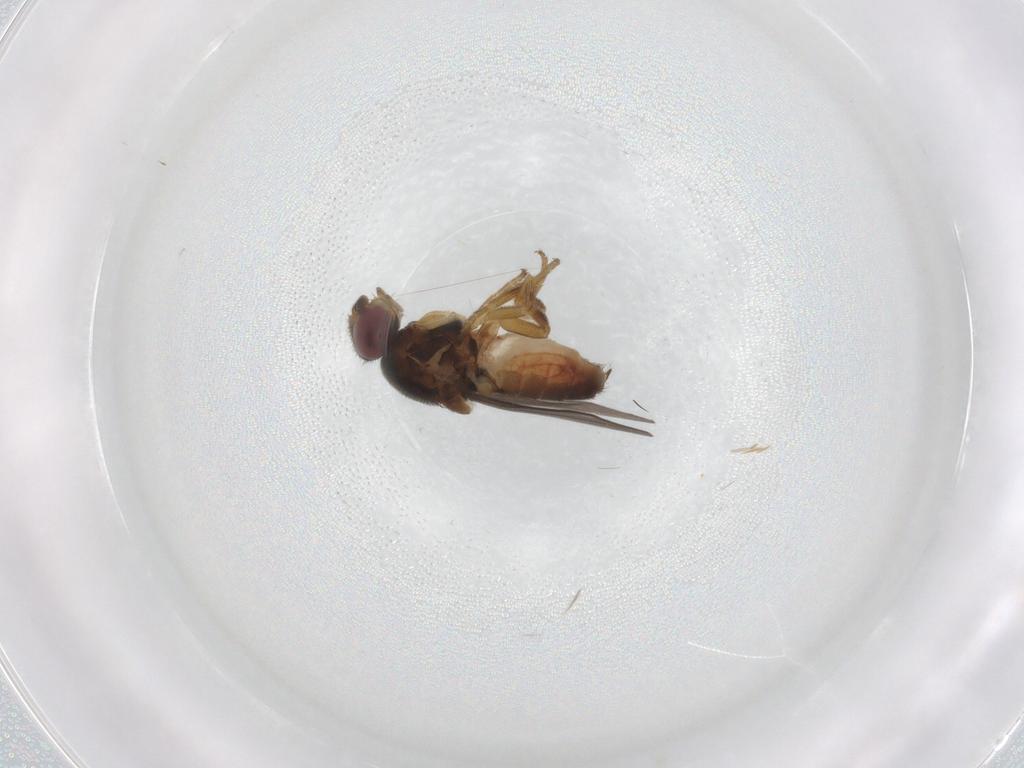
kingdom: Animalia
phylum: Arthropoda
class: Insecta
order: Diptera
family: Chloropidae
